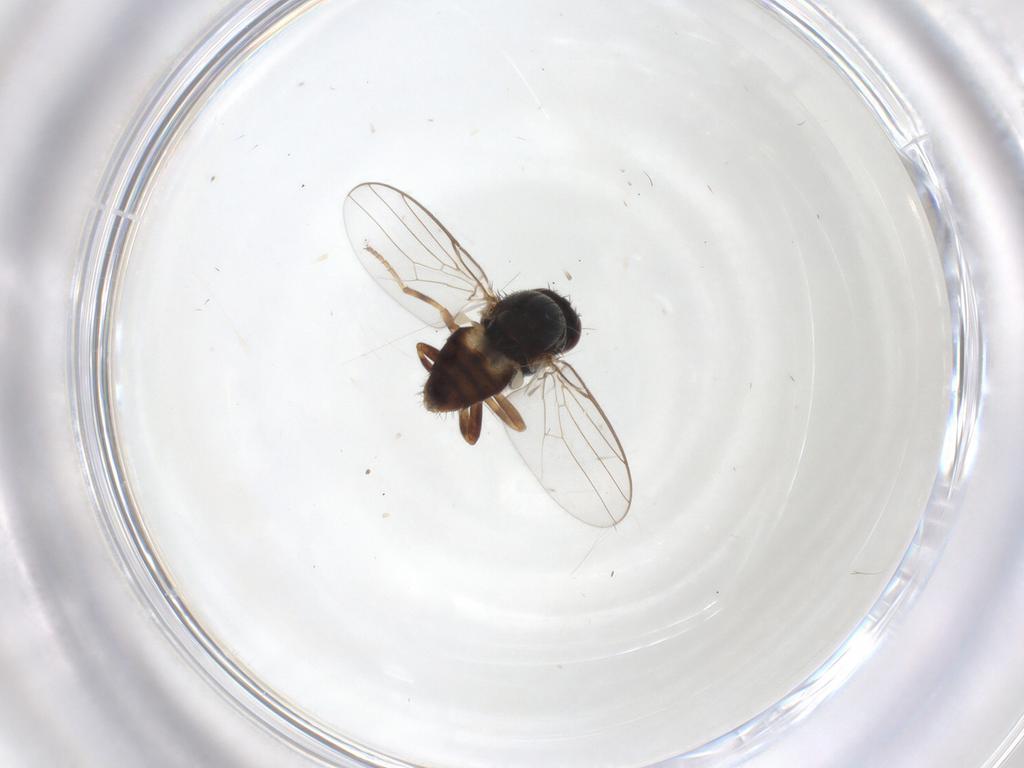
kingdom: Animalia
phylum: Arthropoda
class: Insecta
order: Diptera
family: Chloropidae
